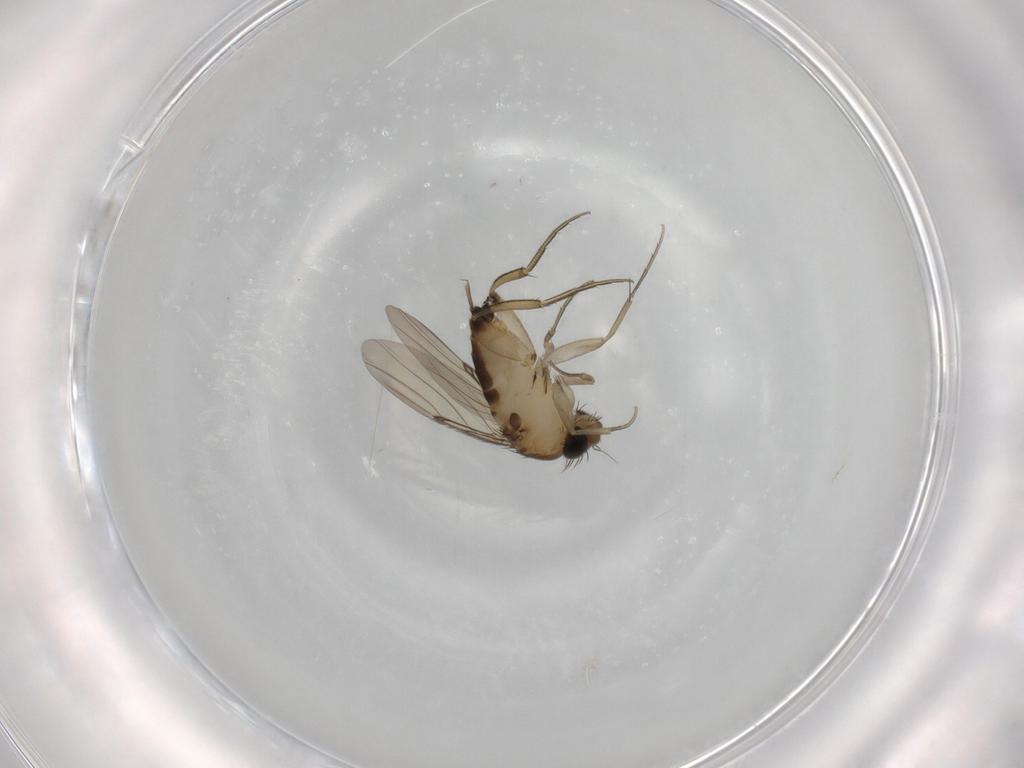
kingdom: Animalia
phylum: Arthropoda
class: Insecta
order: Diptera
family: Phoridae
